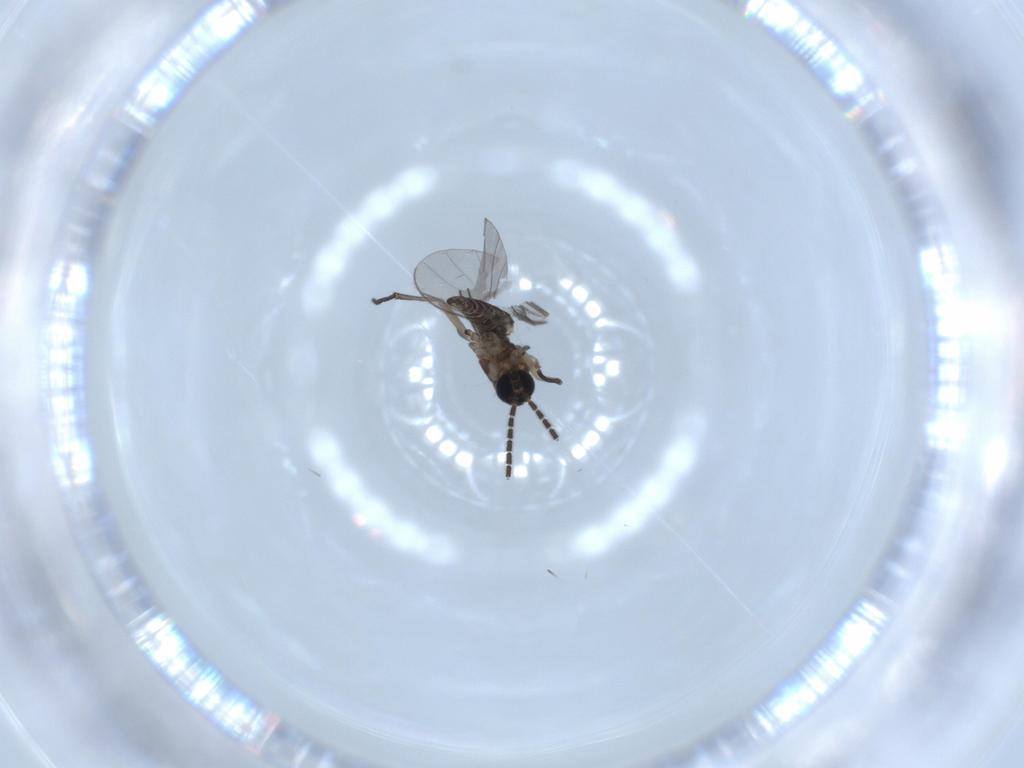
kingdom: Animalia
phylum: Arthropoda
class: Insecta
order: Diptera
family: Sciaridae
